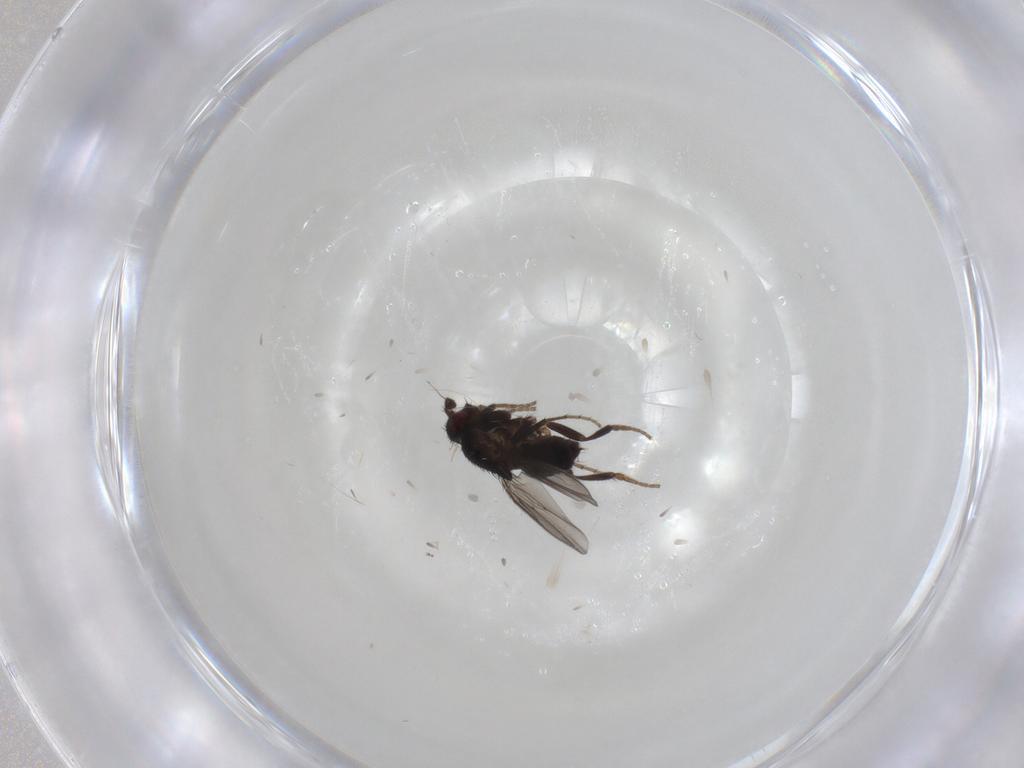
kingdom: Animalia
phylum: Arthropoda
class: Insecta
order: Diptera
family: Sphaeroceridae
